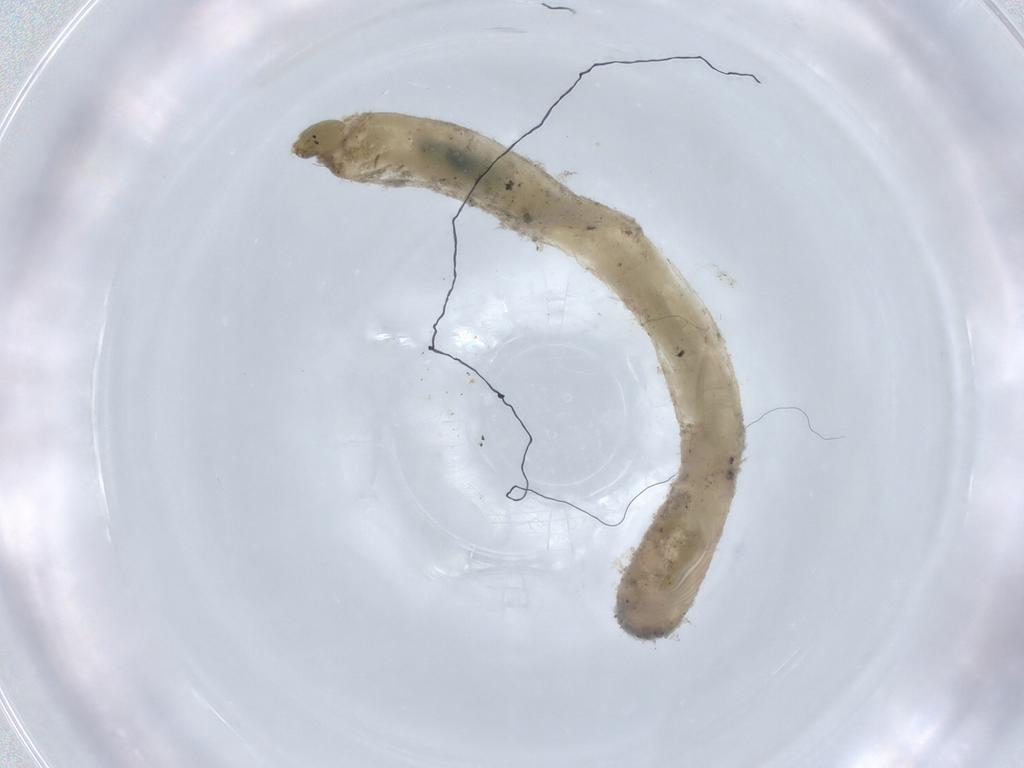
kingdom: Animalia
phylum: Arthropoda
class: Insecta
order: Diptera
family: Chironomidae
